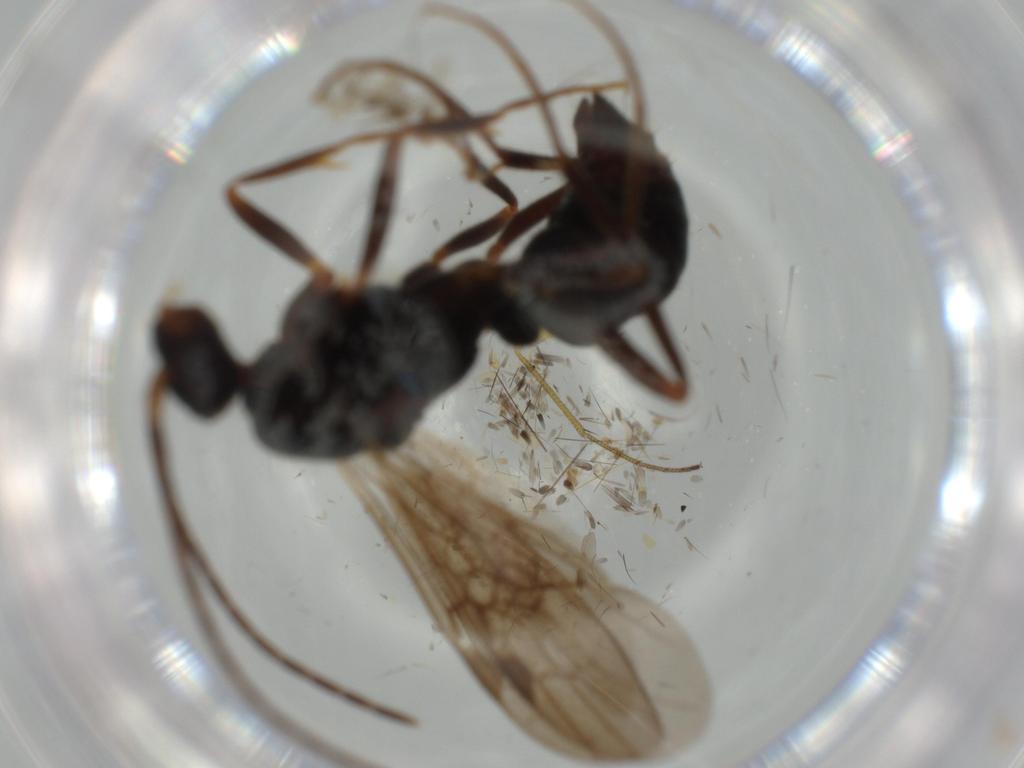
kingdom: Animalia
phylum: Arthropoda
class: Insecta
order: Hymenoptera
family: Formicidae
